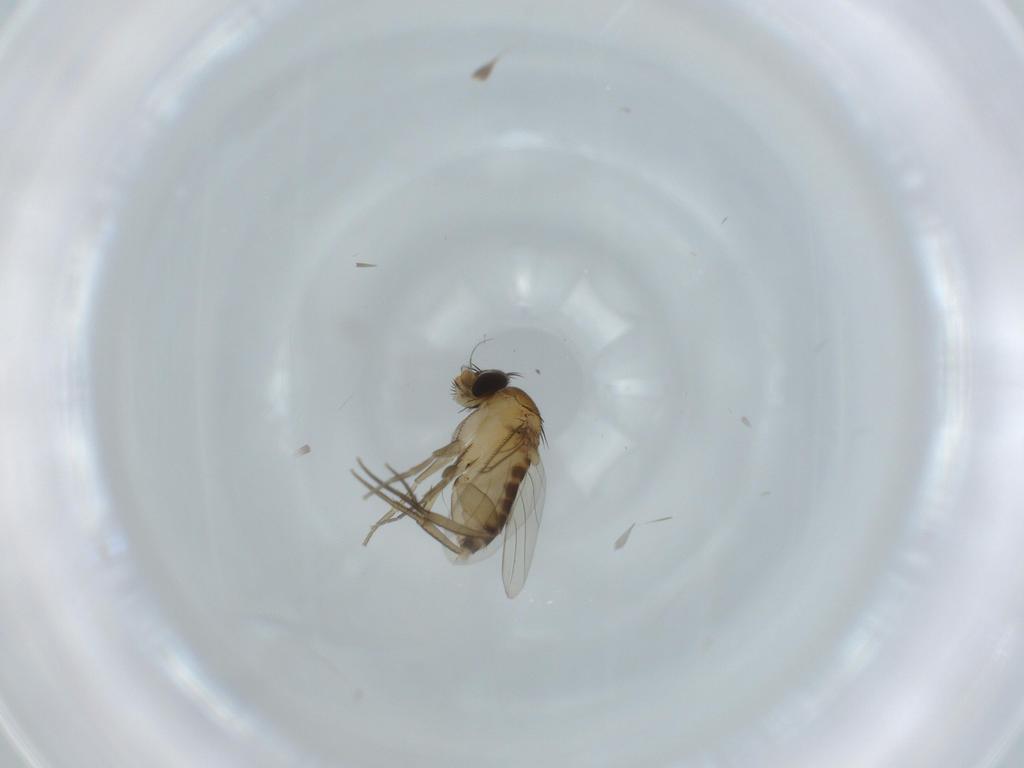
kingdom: Animalia
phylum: Arthropoda
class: Insecta
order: Diptera
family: Phoridae
